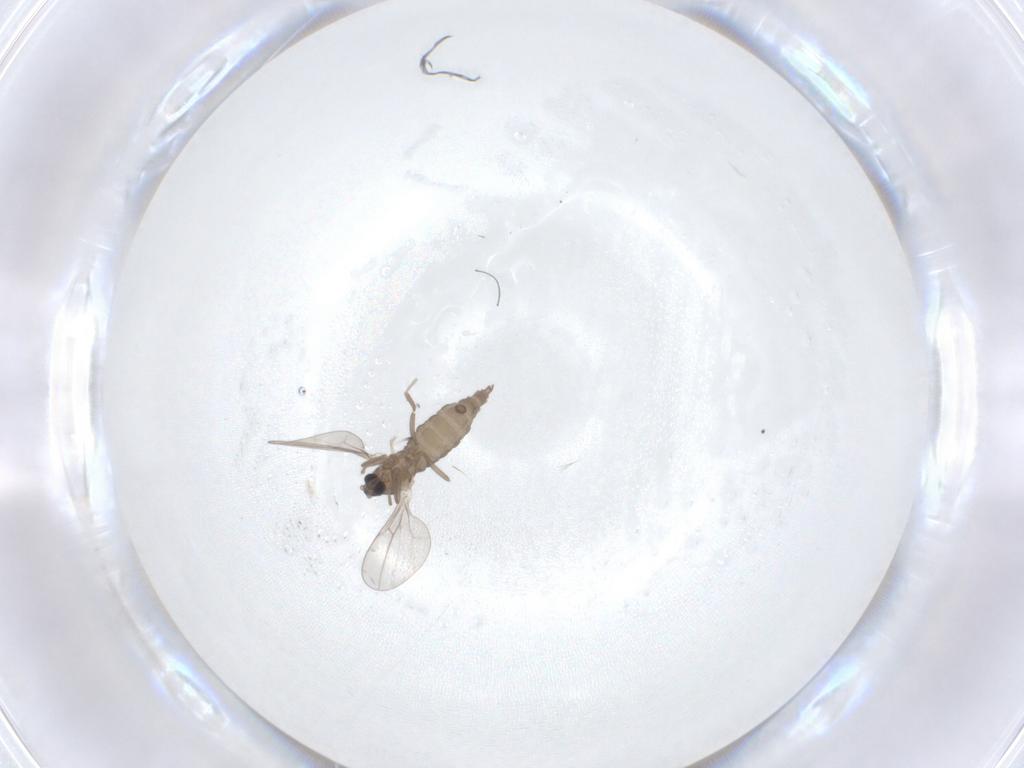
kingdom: Animalia
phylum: Arthropoda
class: Insecta
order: Diptera
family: Cecidomyiidae
